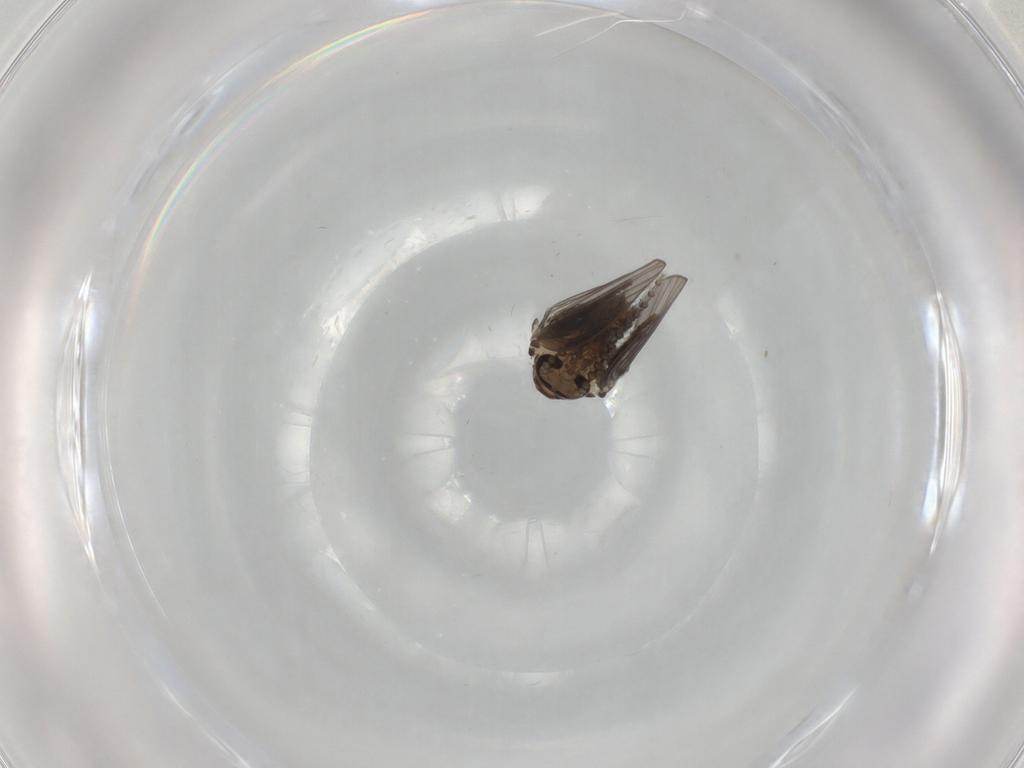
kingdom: Animalia
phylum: Arthropoda
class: Insecta
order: Diptera
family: Psychodidae
